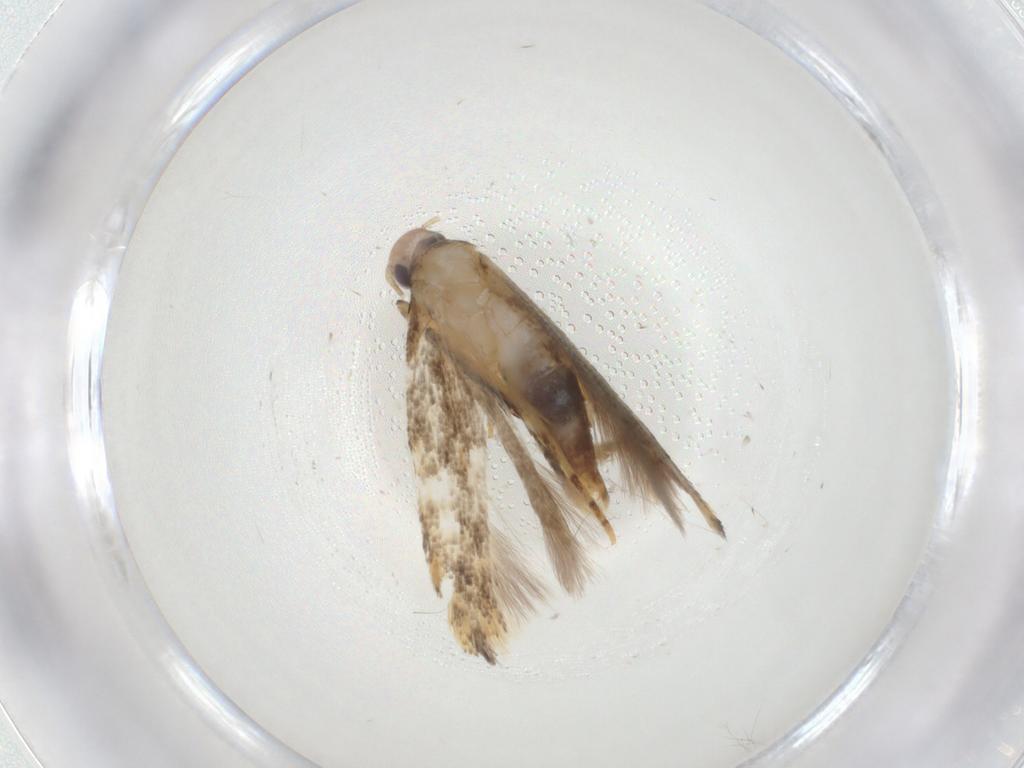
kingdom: Animalia
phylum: Arthropoda
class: Insecta
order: Lepidoptera
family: Gelechiidae
